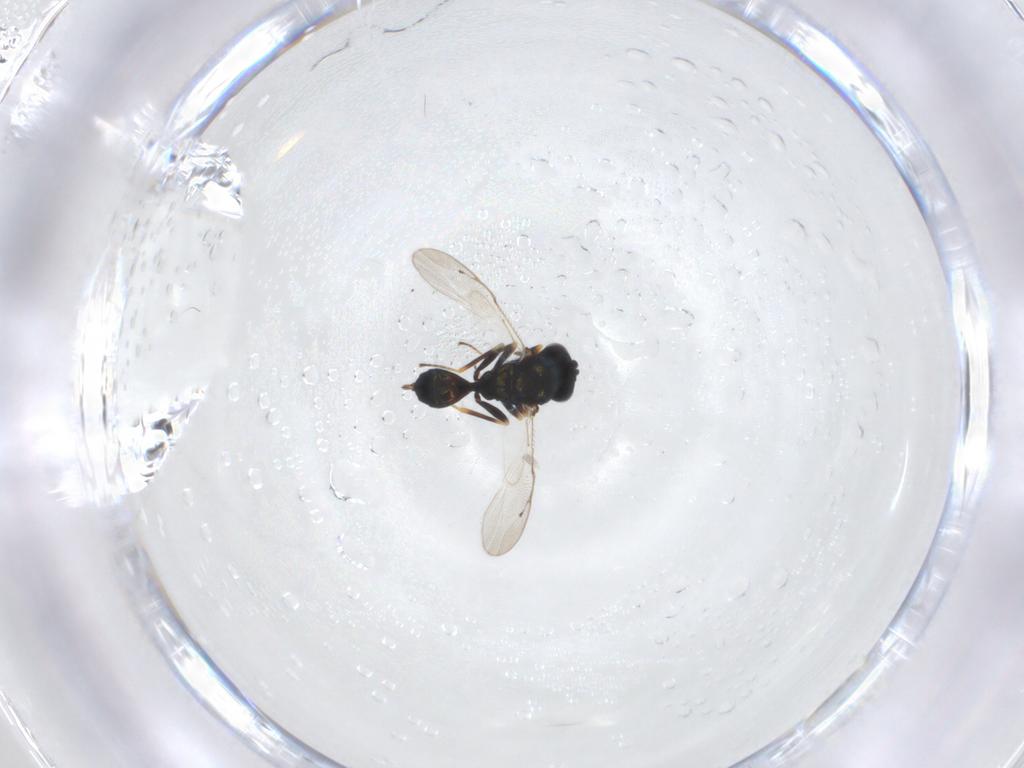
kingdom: Animalia
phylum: Arthropoda
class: Insecta
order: Hymenoptera
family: Pteromalidae
